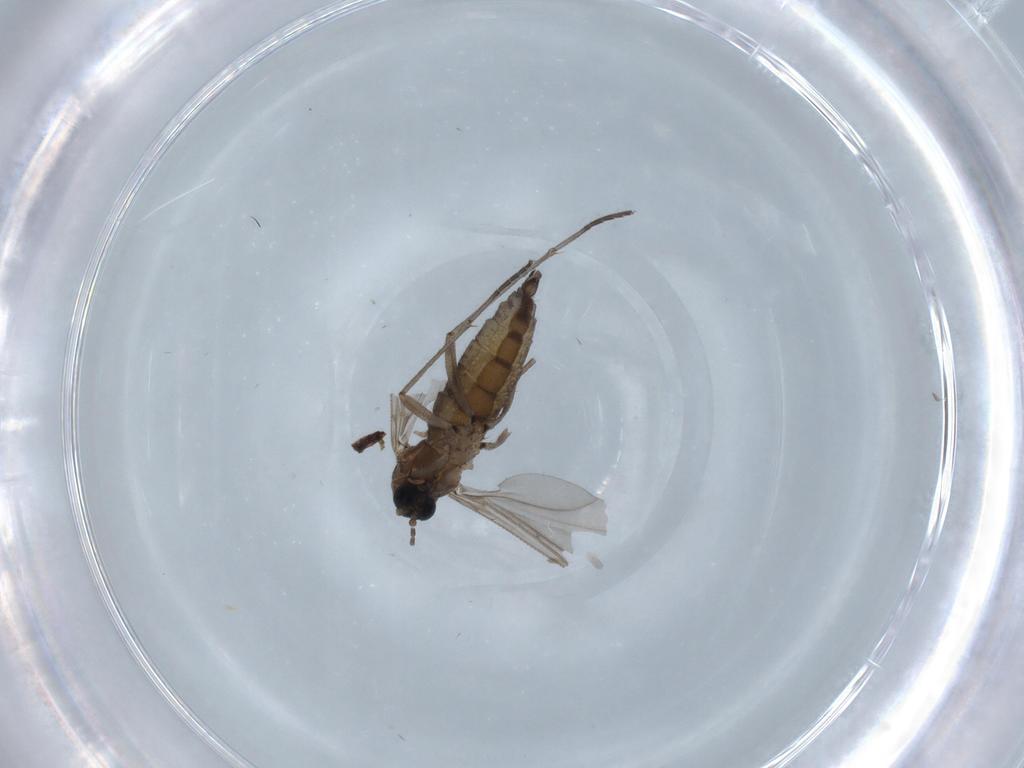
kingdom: Animalia
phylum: Arthropoda
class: Insecta
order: Diptera
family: Sciaridae
